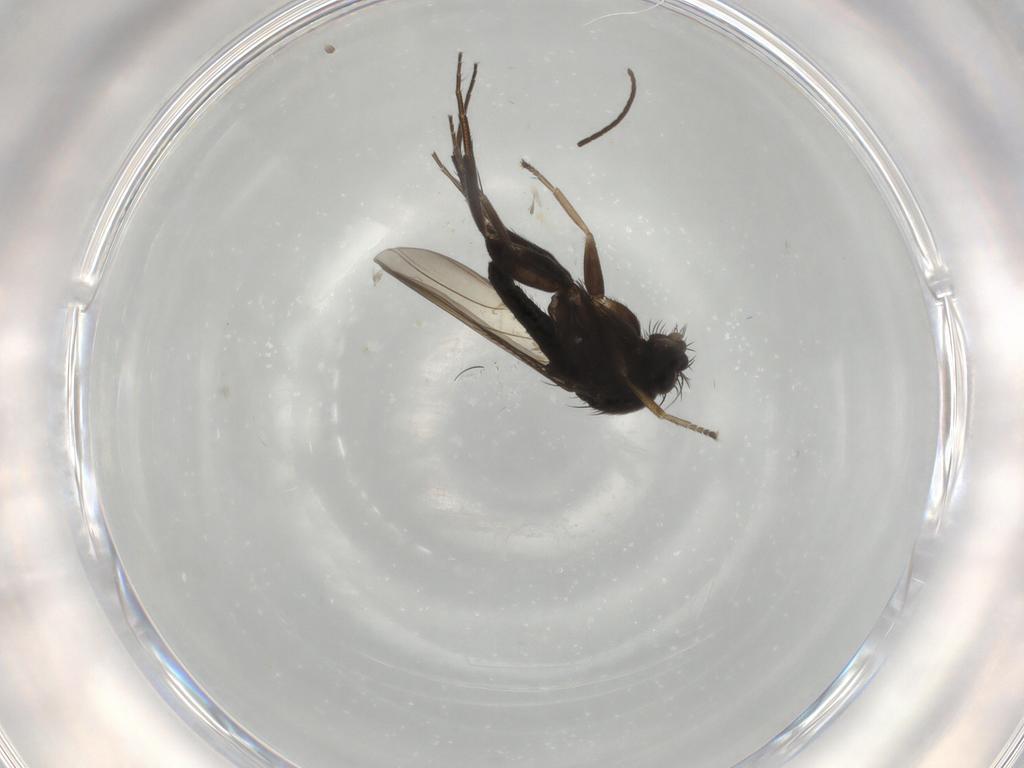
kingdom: Animalia
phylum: Arthropoda
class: Insecta
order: Diptera
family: Phoridae
